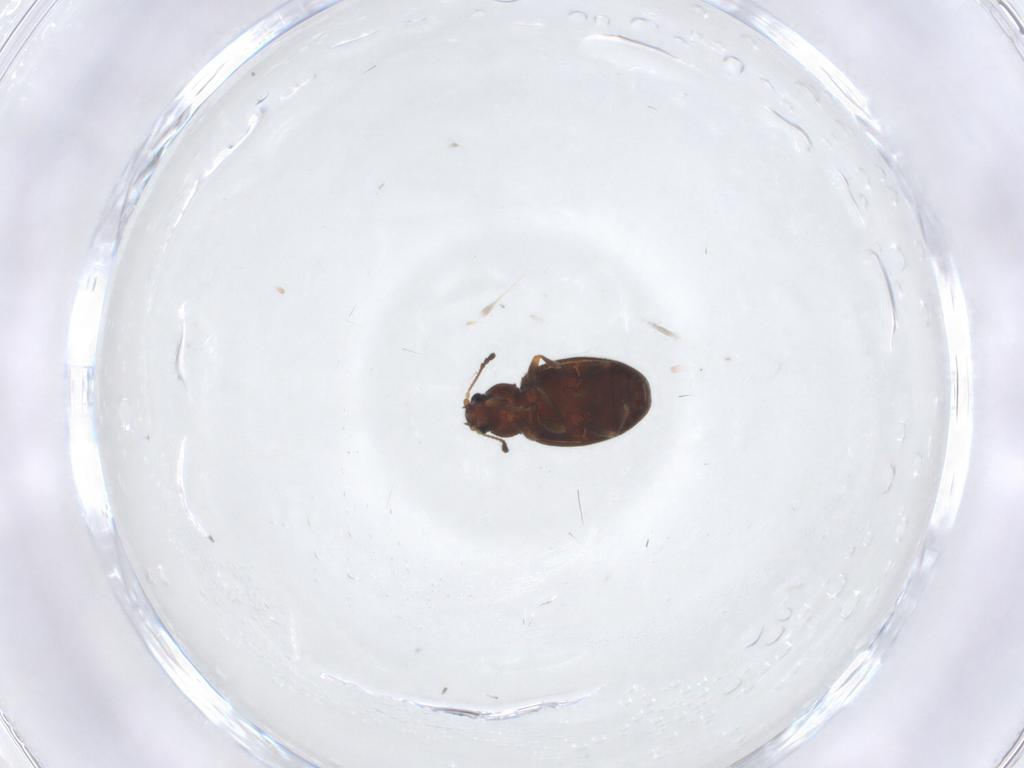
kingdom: Animalia
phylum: Arthropoda
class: Insecta
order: Coleoptera
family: Latridiidae
